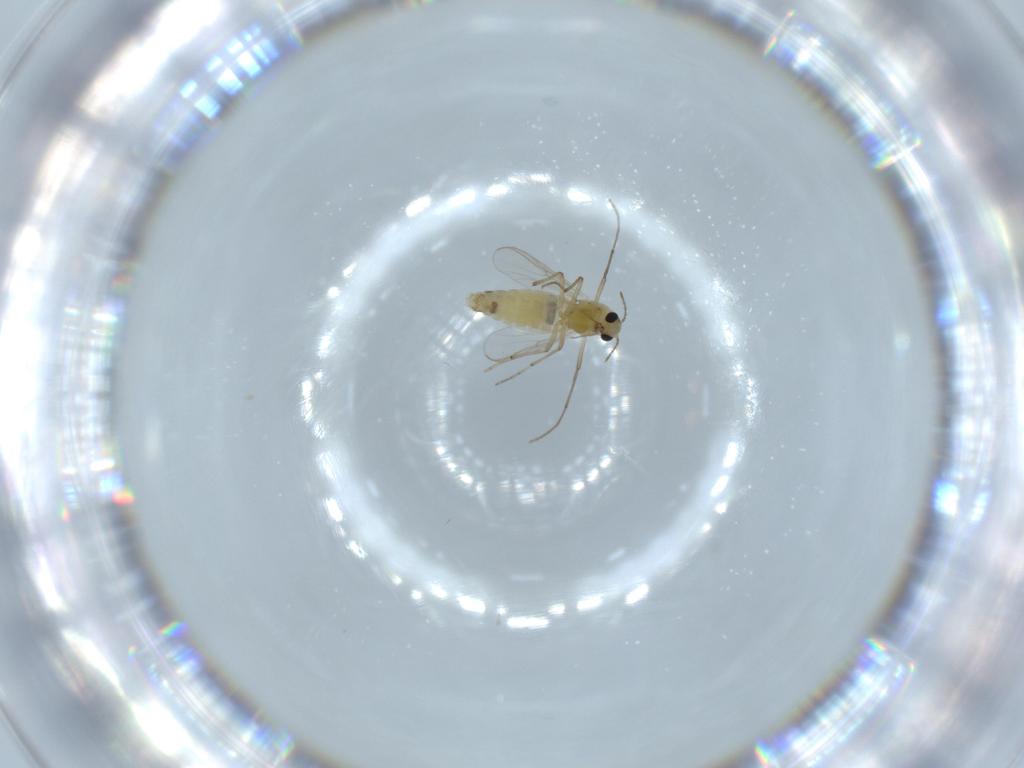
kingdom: Animalia
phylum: Arthropoda
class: Insecta
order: Diptera
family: Chironomidae
